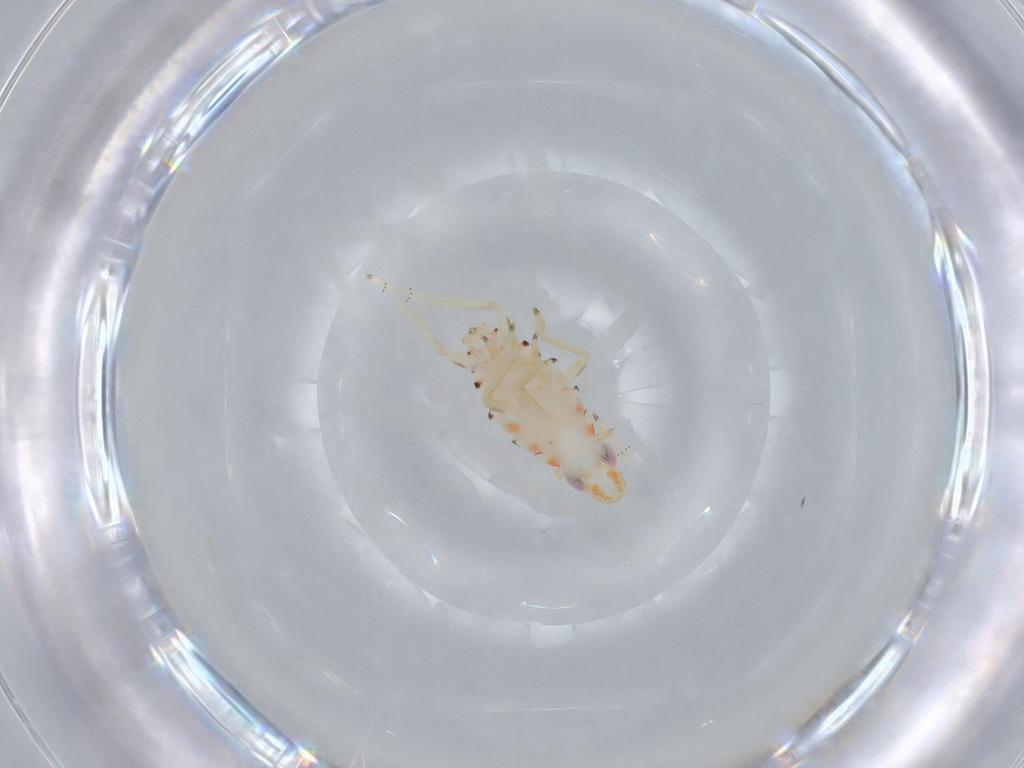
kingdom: Animalia
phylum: Arthropoda
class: Insecta
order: Hemiptera
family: Tropiduchidae
